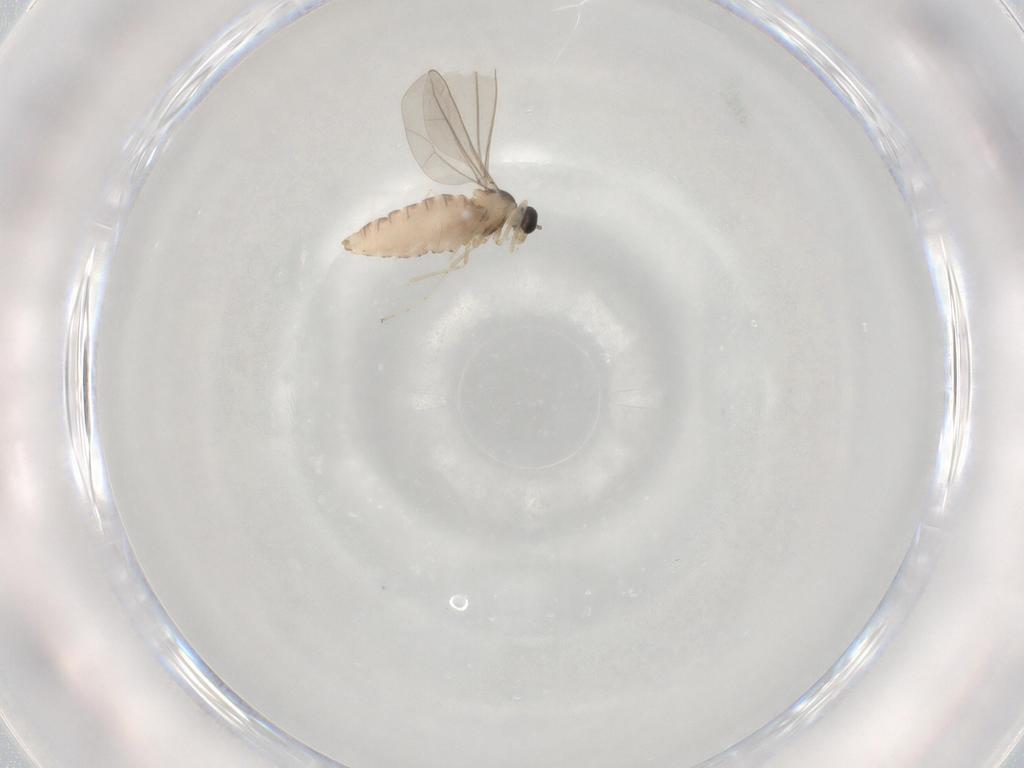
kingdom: Animalia
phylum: Arthropoda
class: Insecta
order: Diptera
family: Cecidomyiidae
